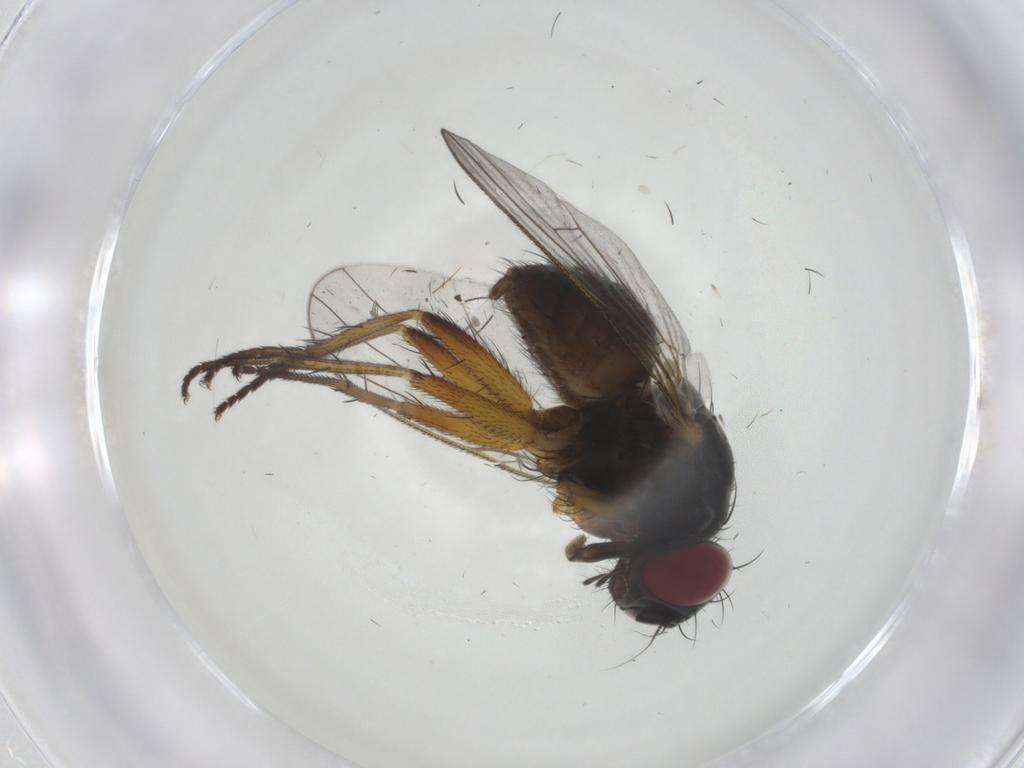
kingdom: Animalia
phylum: Arthropoda
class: Insecta
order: Diptera
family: Muscidae
